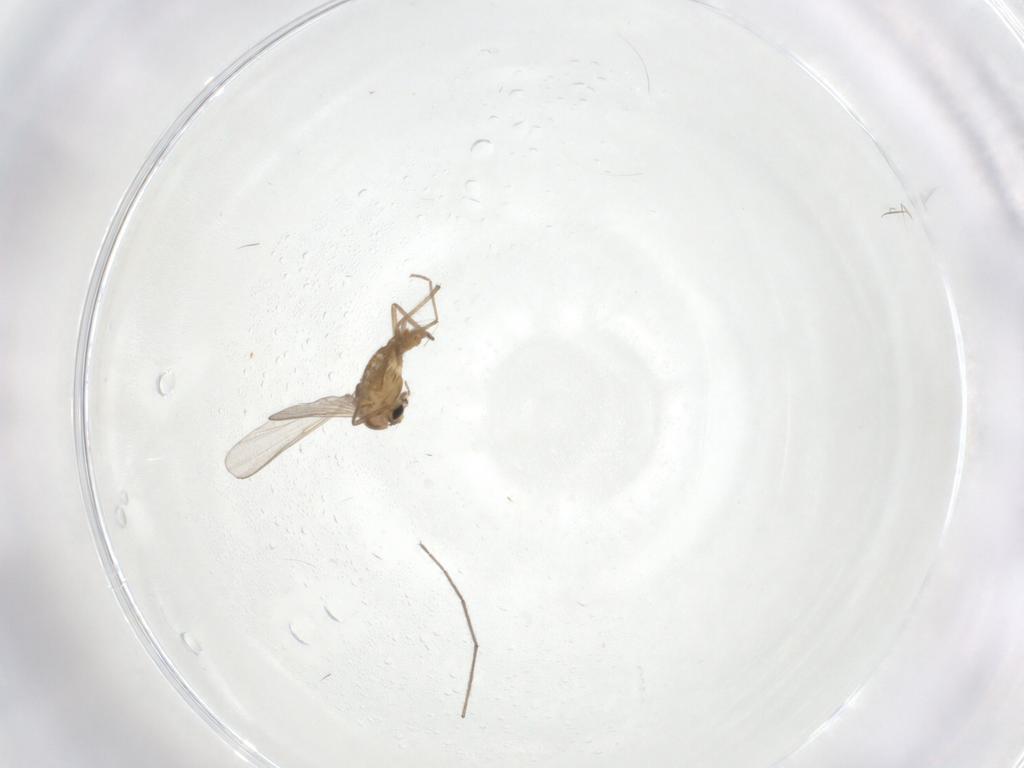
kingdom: Animalia
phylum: Arthropoda
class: Insecta
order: Diptera
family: Chironomidae
